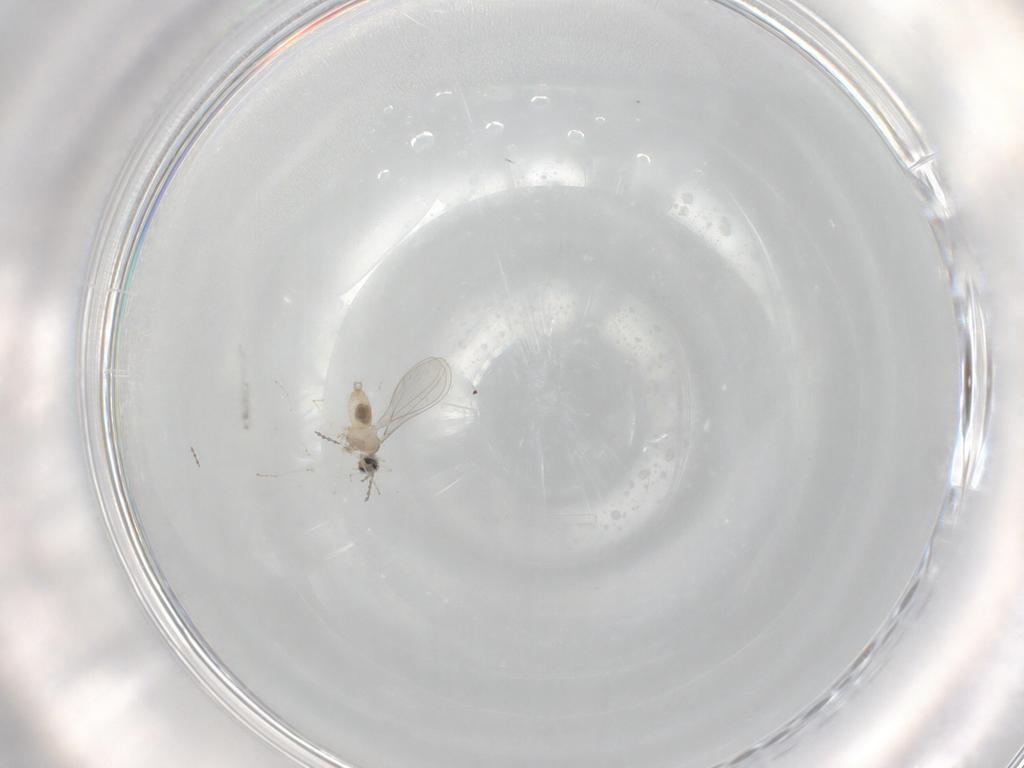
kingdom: Animalia
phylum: Arthropoda
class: Insecta
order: Diptera
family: Cecidomyiidae
